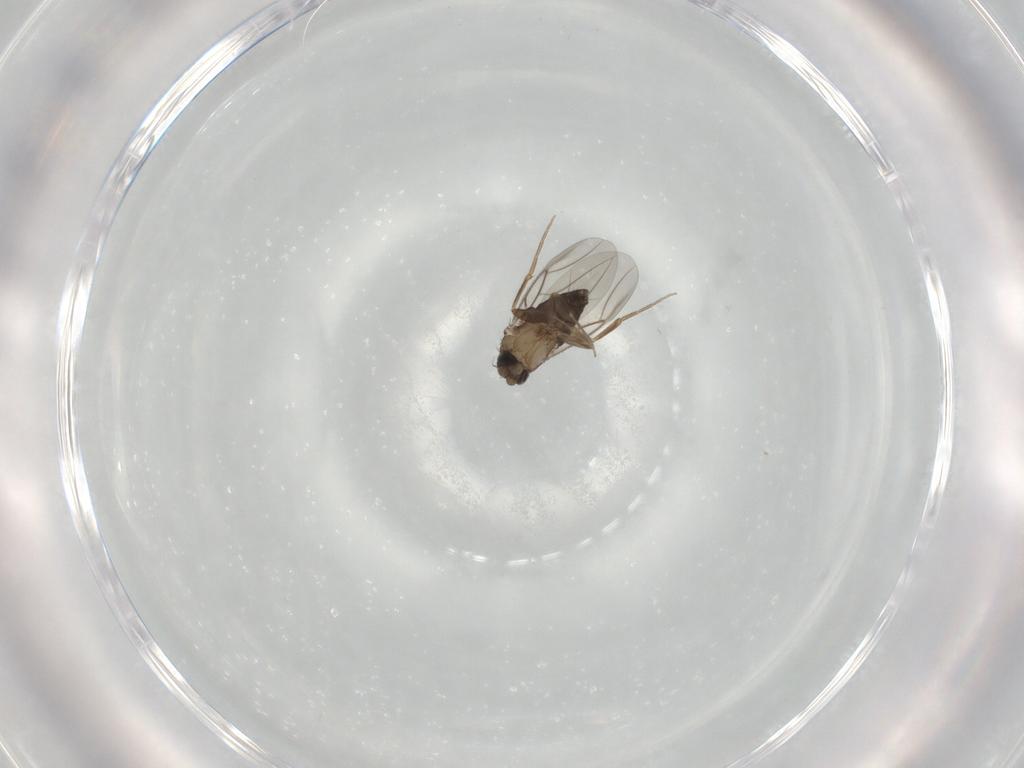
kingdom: Animalia
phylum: Arthropoda
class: Insecta
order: Diptera
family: Phoridae
